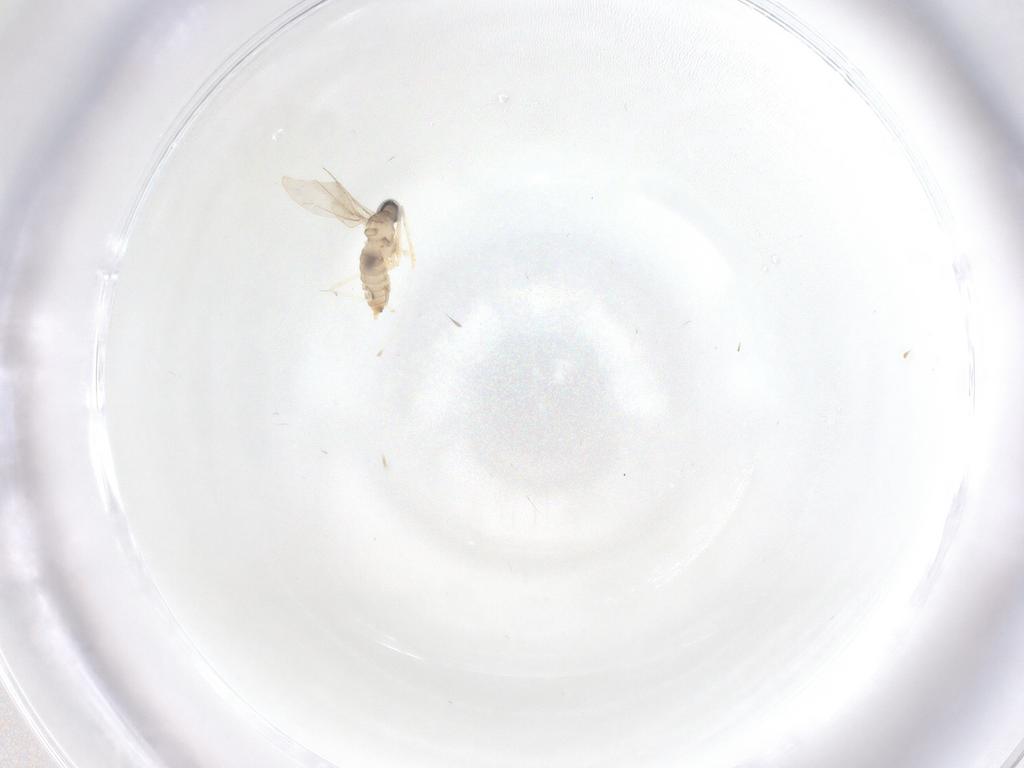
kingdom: Animalia
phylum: Arthropoda
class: Insecta
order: Diptera
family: Cecidomyiidae
